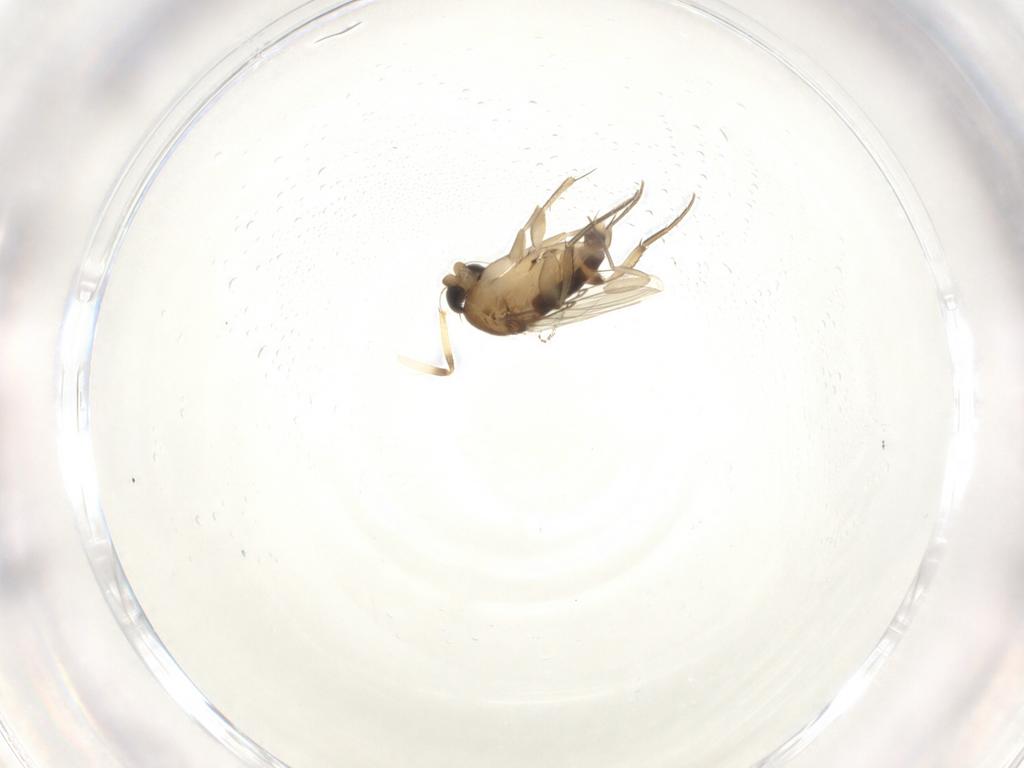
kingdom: Animalia
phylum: Arthropoda
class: Insecta
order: Diptera
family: Phoridae
